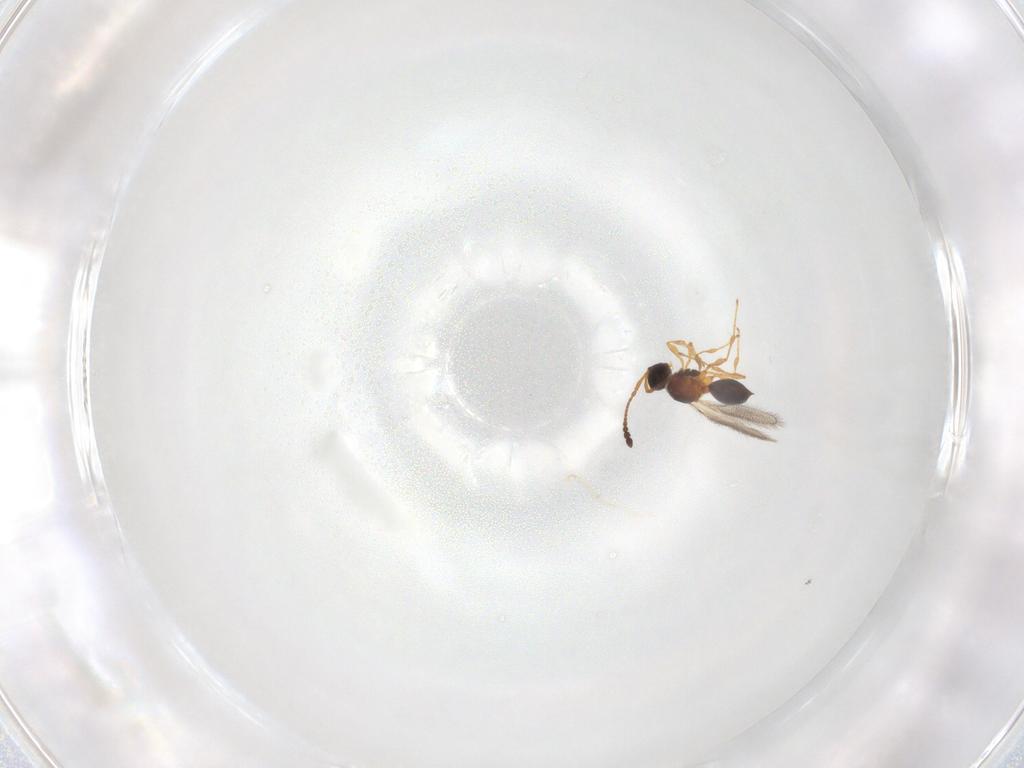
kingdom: Animalia
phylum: Arthropoda
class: Insecta
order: Hymenoptera
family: Diapriidae
